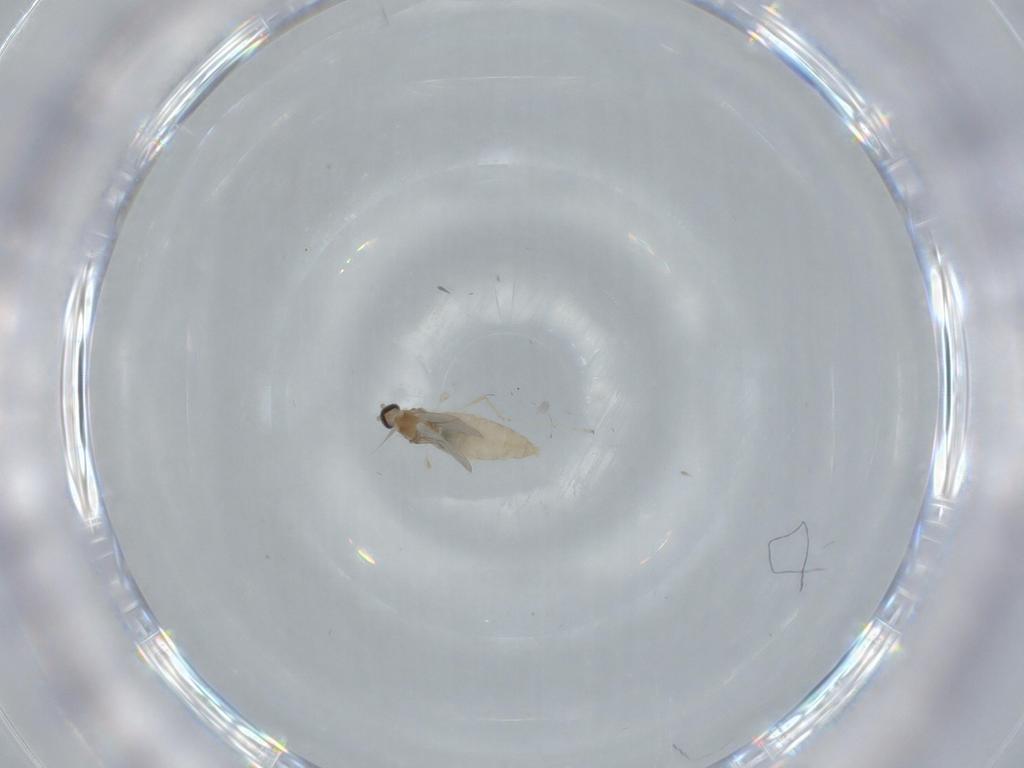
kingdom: Animalia
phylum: Arthropoda
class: Insecta
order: Diptera
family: Cecidomyiidae
